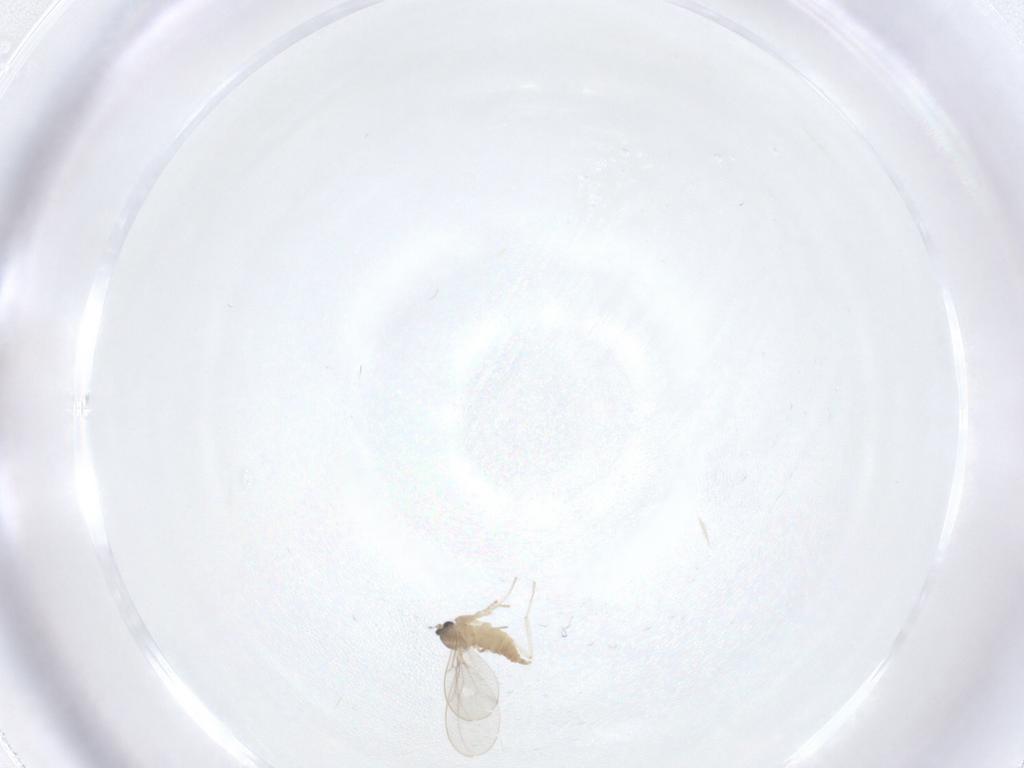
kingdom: Animalia
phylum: Arthropoda
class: Insecta
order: Diptera
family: Cecidomyiidae
